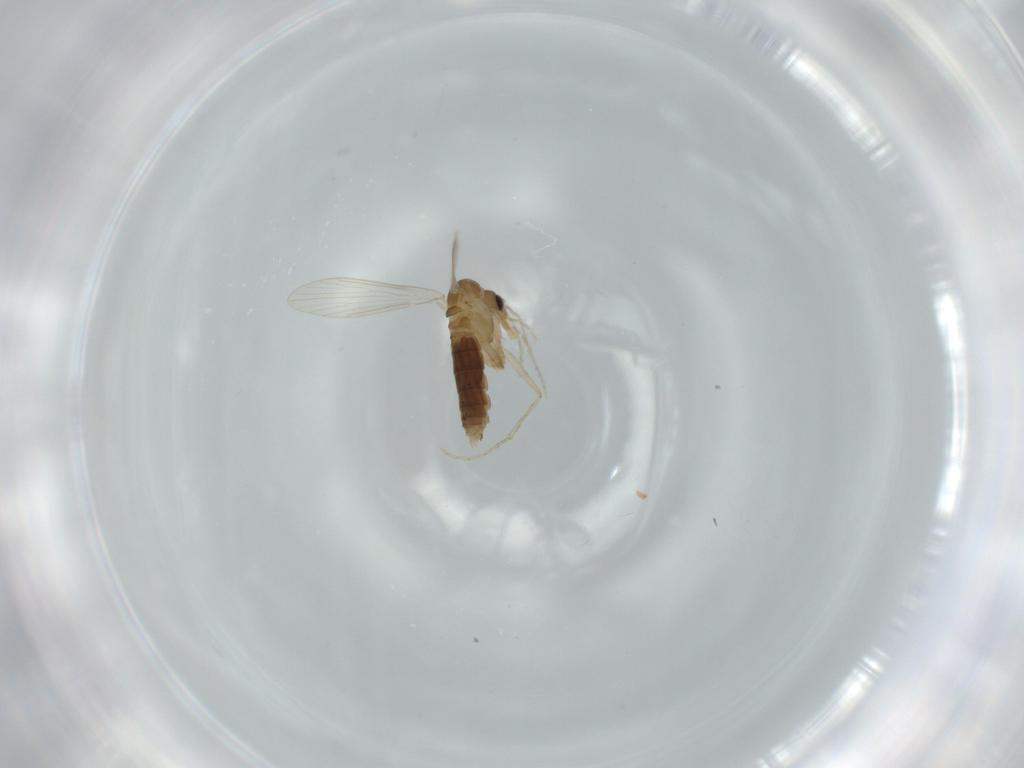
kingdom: Animalia
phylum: Arthropoda
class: Insecta
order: Diptera
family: Psychodidae
